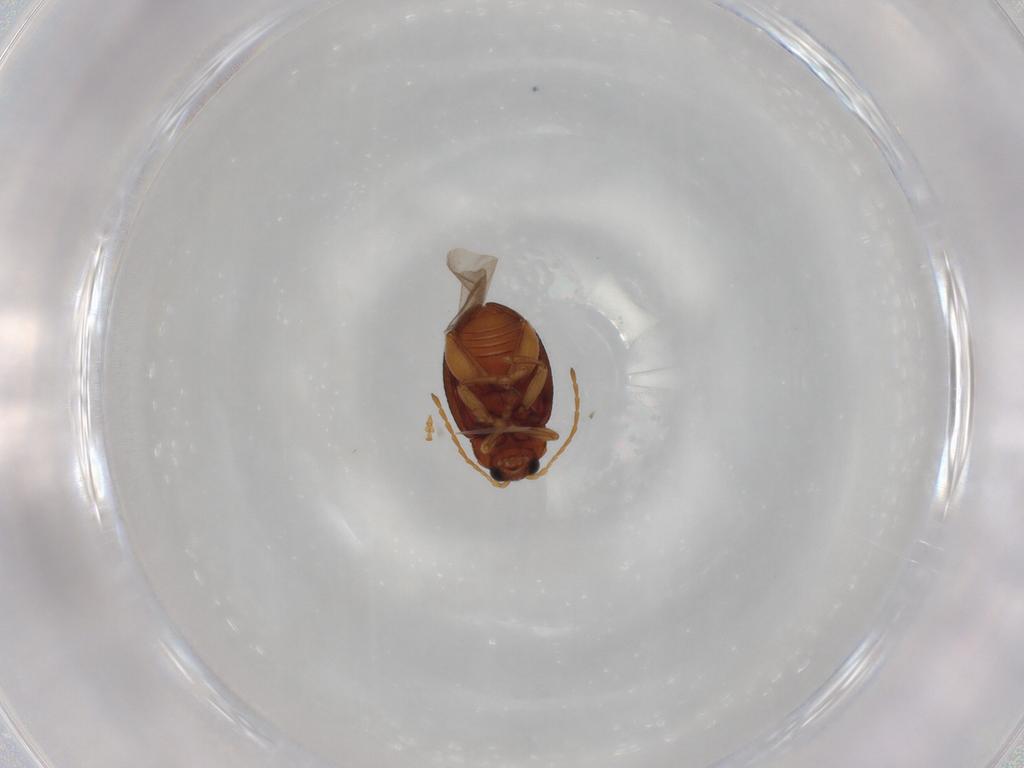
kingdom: Animalia
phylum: Arthropoda
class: Insecta
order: Coleoptera
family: Chrysomelidae
